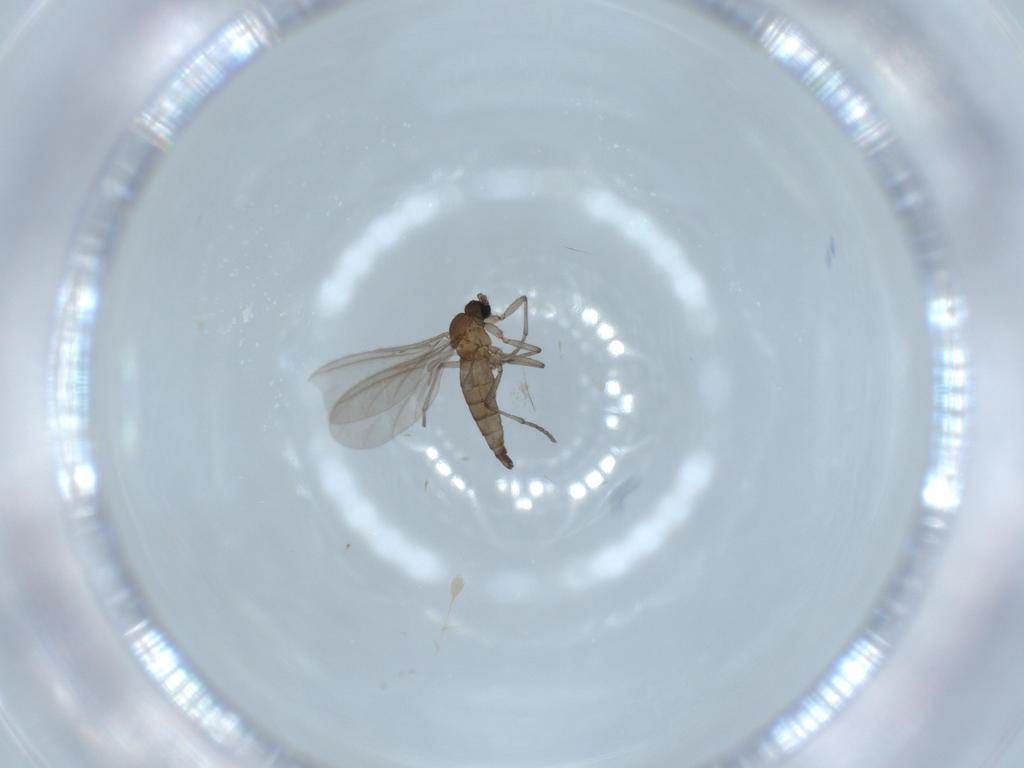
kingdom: Animalia
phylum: Arthropoda
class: Insecta
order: Diptera
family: Sciaridae
